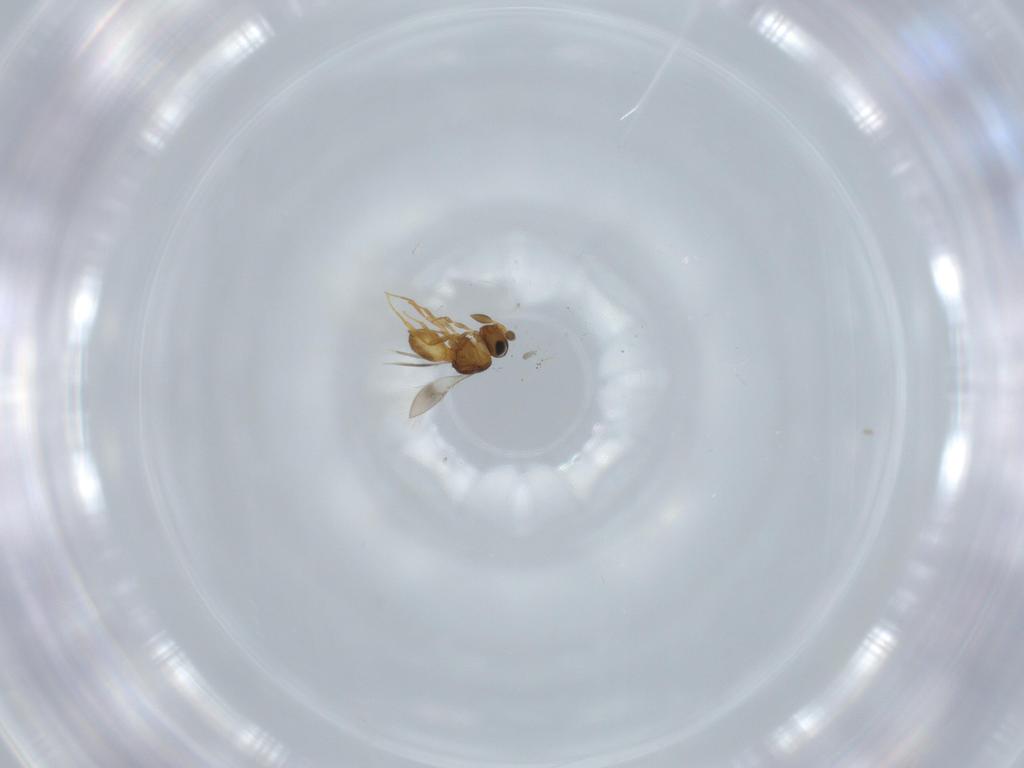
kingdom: Animalia
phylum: Arthropoda
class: Insecta
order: Hymenoptera
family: Scelionidae
